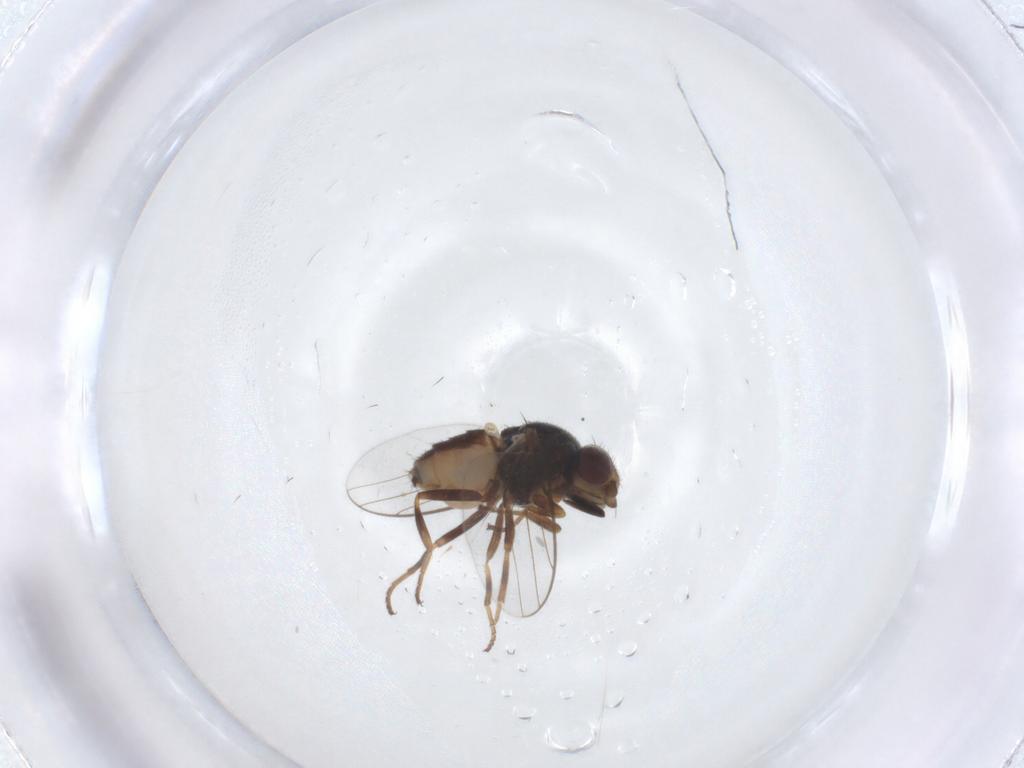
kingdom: Animalia
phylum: Arthropoda
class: Insecta
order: Diptera
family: Chloropidae
